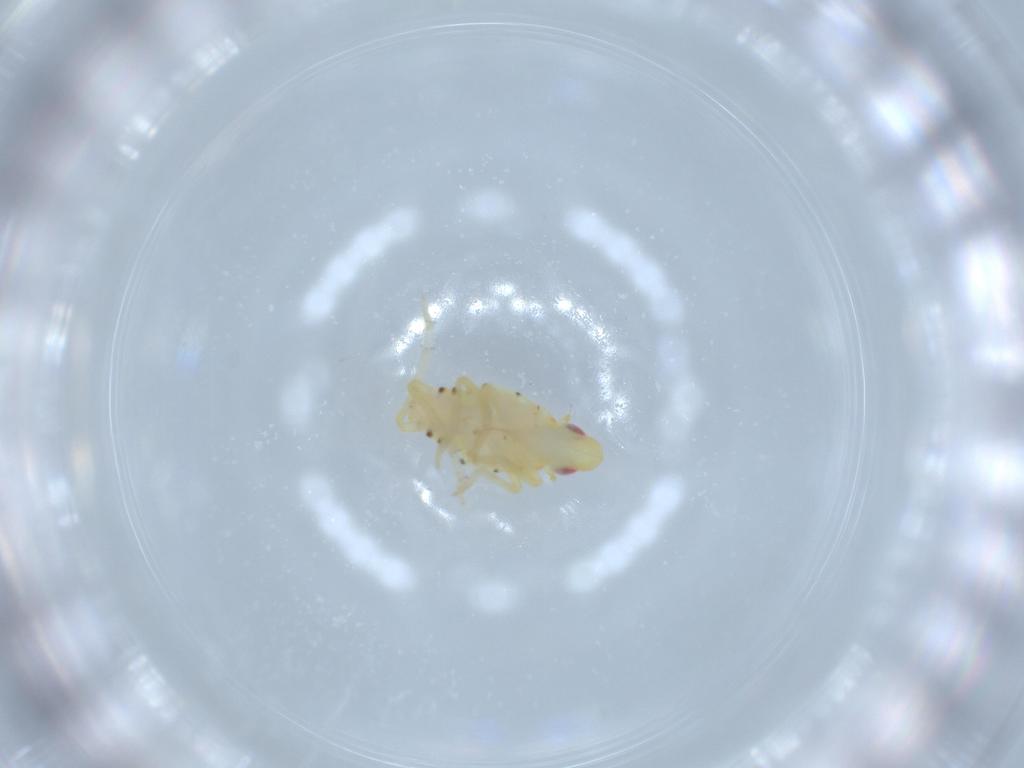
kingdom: Animalia
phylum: Arthropoda
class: Insecta
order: Hemiptera
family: Tropiduchidae
